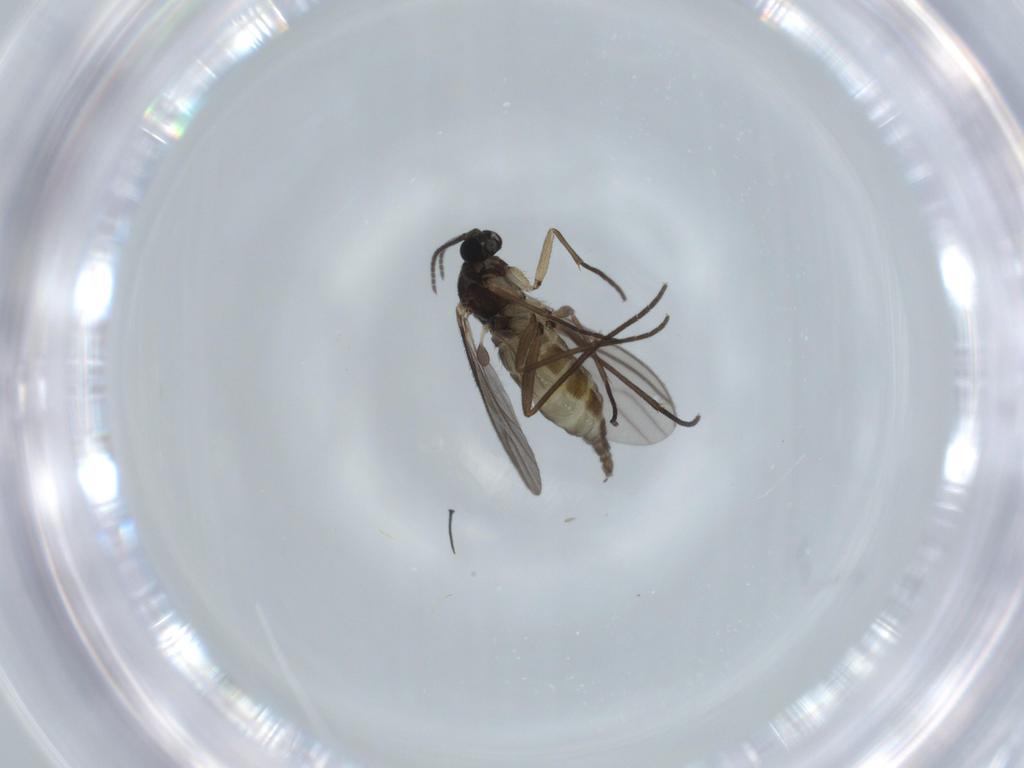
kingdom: Animalia
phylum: Arthropoda
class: Insecta
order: Diptera
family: Sciaridae
